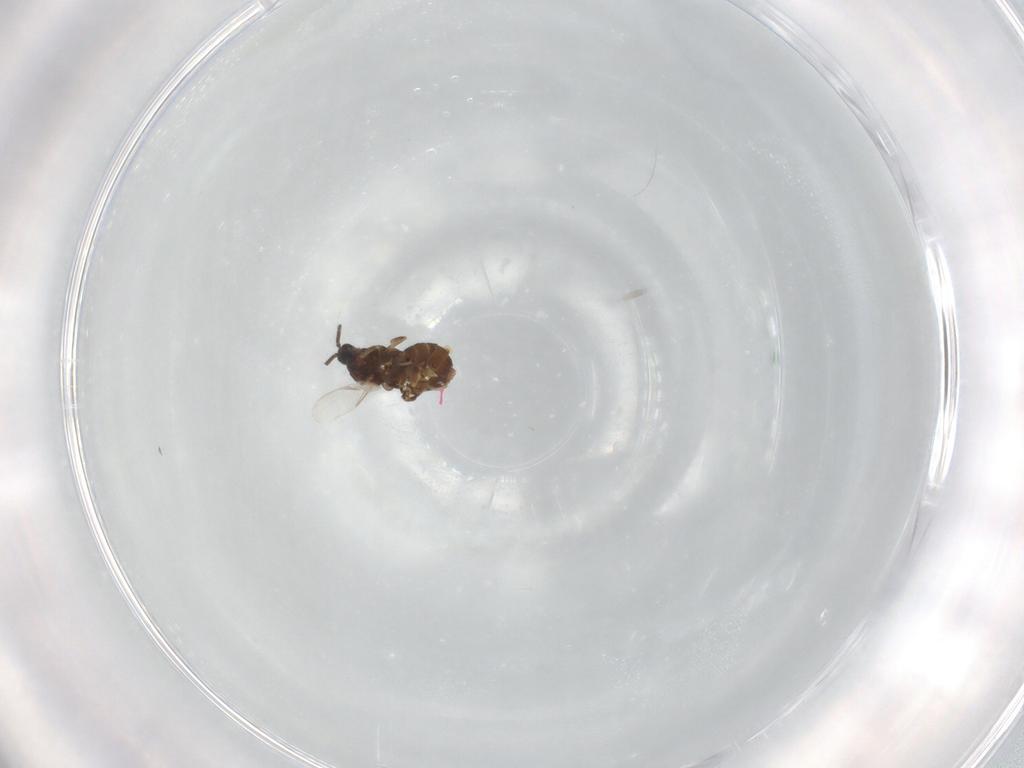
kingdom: Animalia
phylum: Arthropoda
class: Insecta
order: Diptera
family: Scatopsidae
